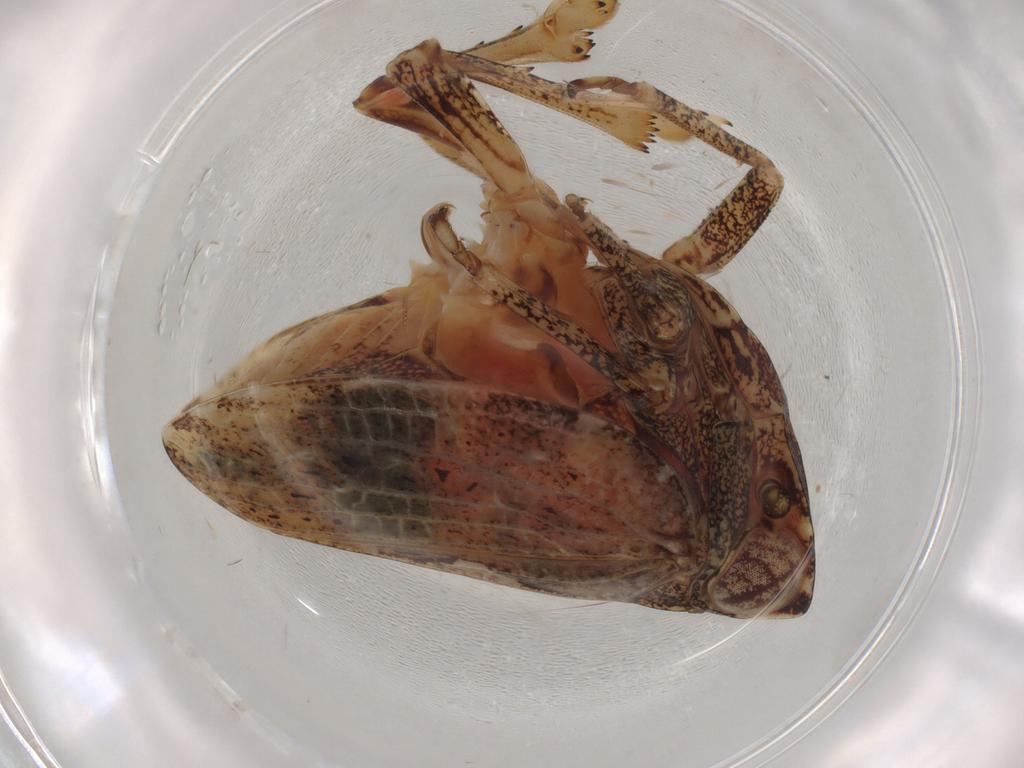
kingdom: Animalia
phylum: Arthropoda
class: Insecta
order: Hemiptera
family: Nogodinidae
